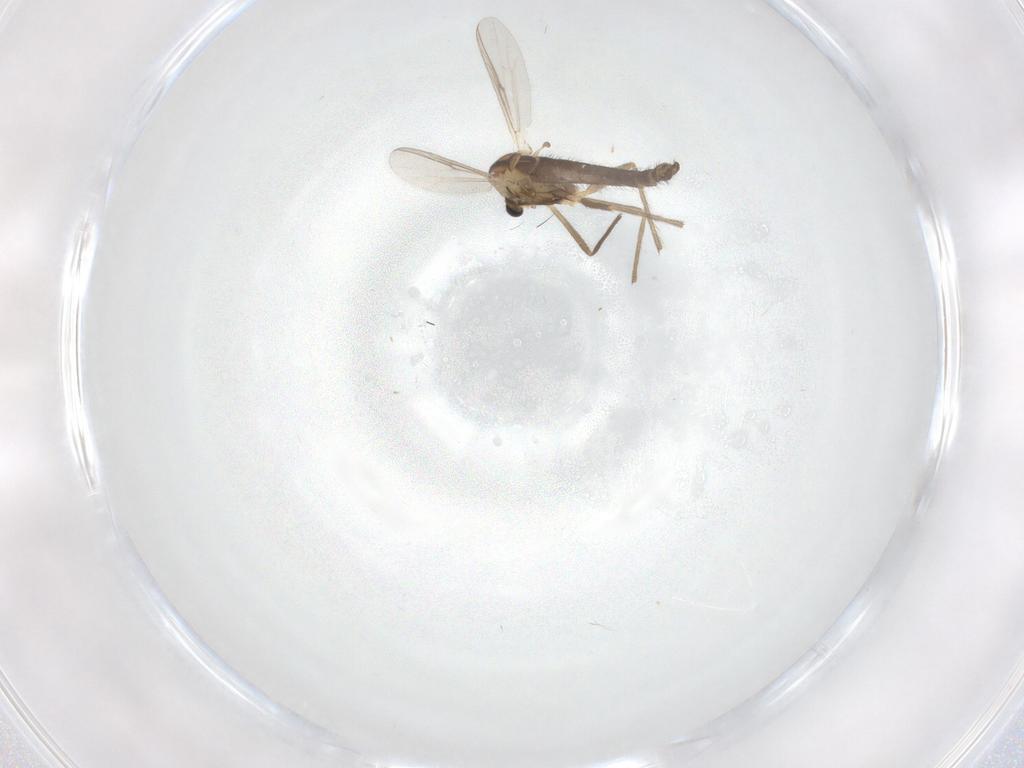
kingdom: Animalia
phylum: Arthropoda
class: Insecta
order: Diptera
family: Chironomidae
